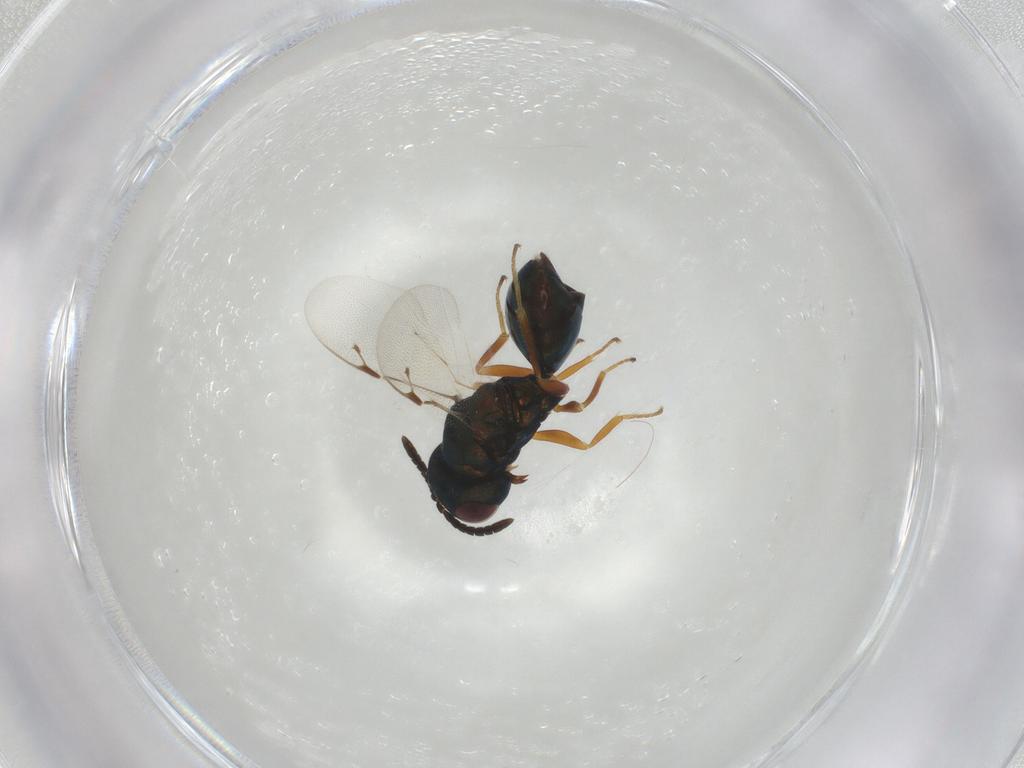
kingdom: Animalia
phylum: Arthropoda
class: Insecta
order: Hymenoptera
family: Pteromalidae
